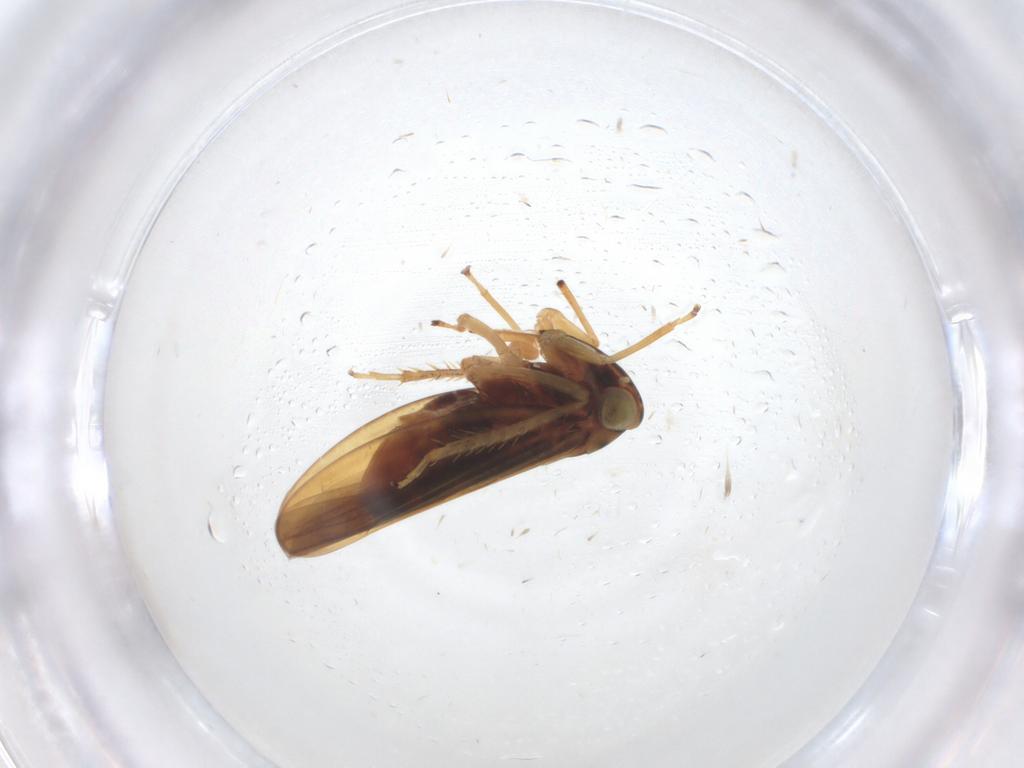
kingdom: Animalia
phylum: Arthropoda
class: Insecta
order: Hemiptera
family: Cicadellidae
